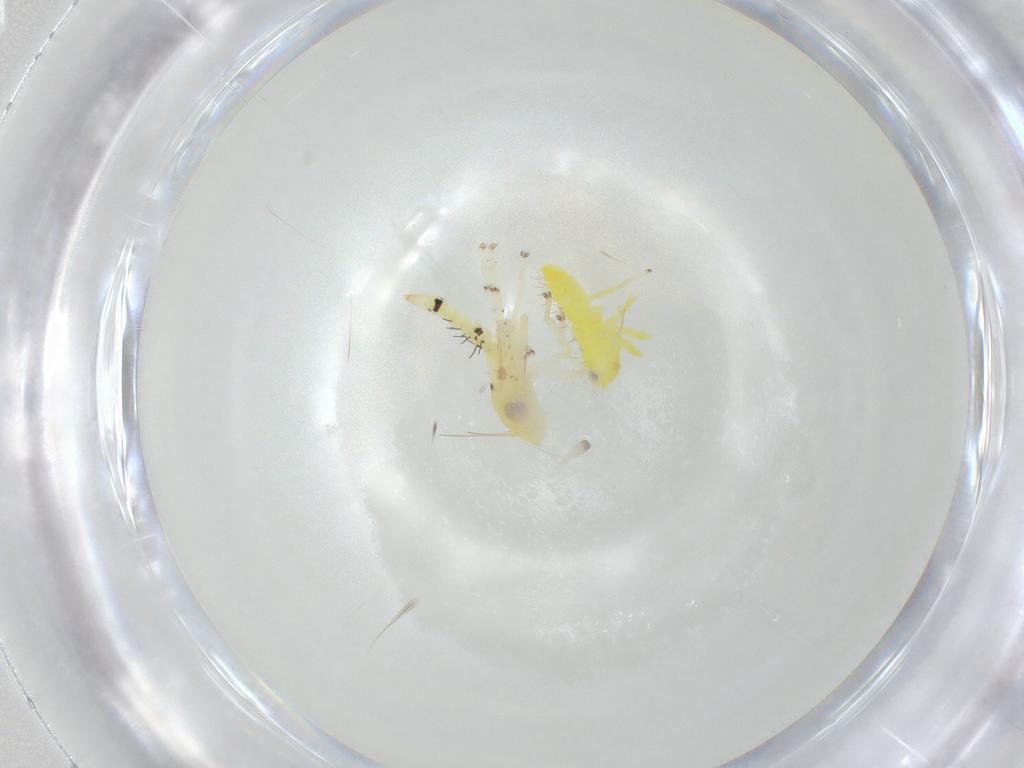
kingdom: Animalia
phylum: Arthropoda
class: Insecta
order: Hemiptera
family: Cicadellidae
